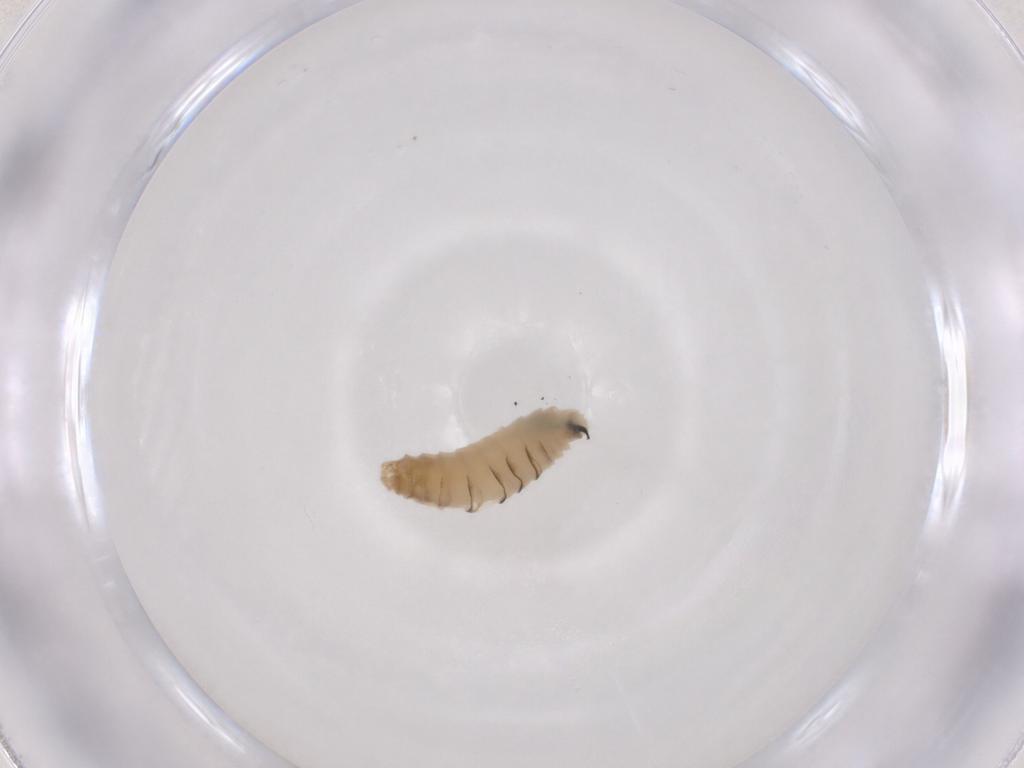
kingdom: Animalia
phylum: Arthropoda
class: Insecta
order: Diptera
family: Sarcophagidae
